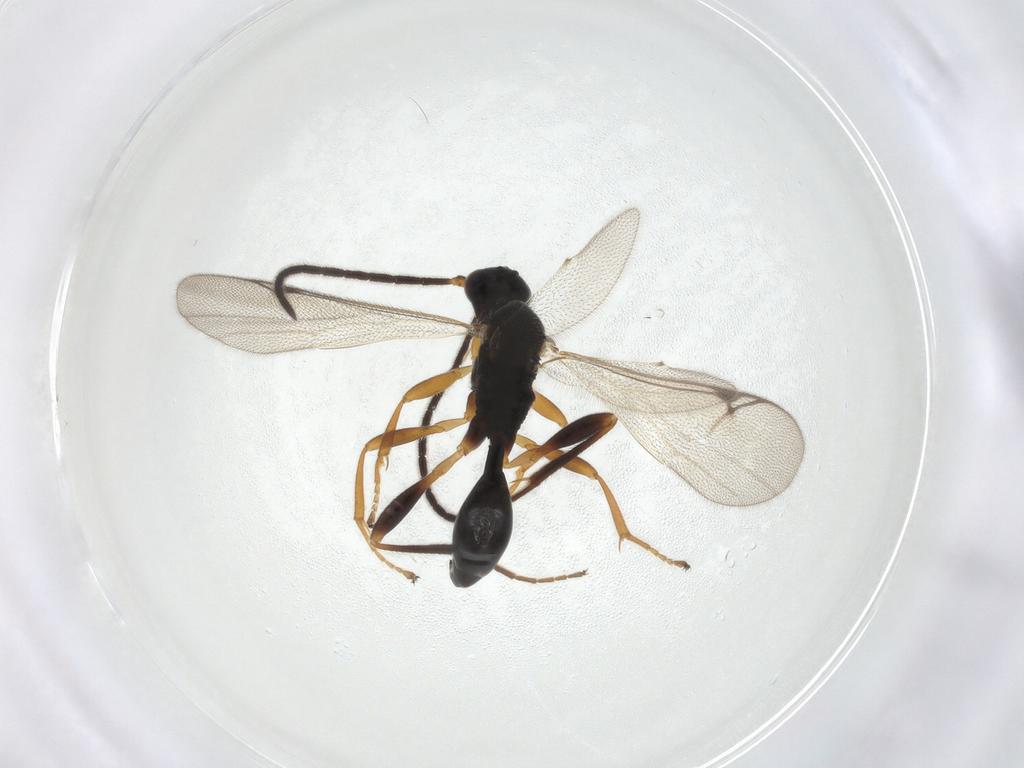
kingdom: Animalia
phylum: Arthropoda
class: Insecta
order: Hymenoptera
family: Proctotrupidae
